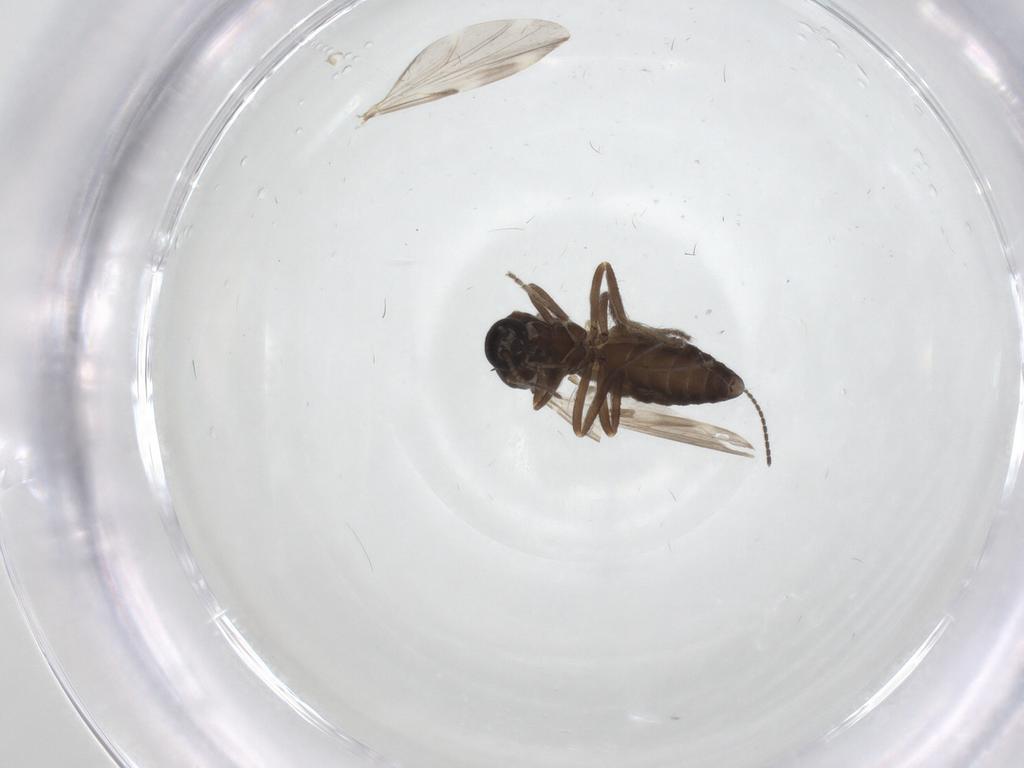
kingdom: Animalia
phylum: Arthropoda
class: Insecta
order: Diptera
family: Ceratopogonidae
